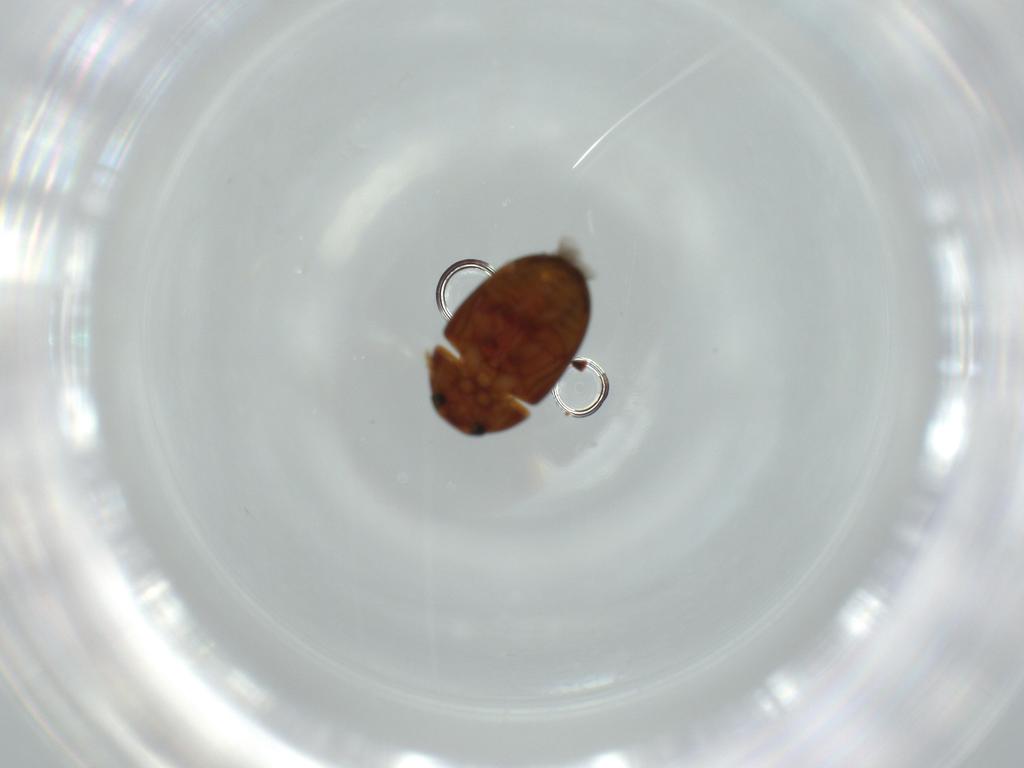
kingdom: Animalia
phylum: Arthropoda
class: Insecta
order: Coleoptera
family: Phalacridae
